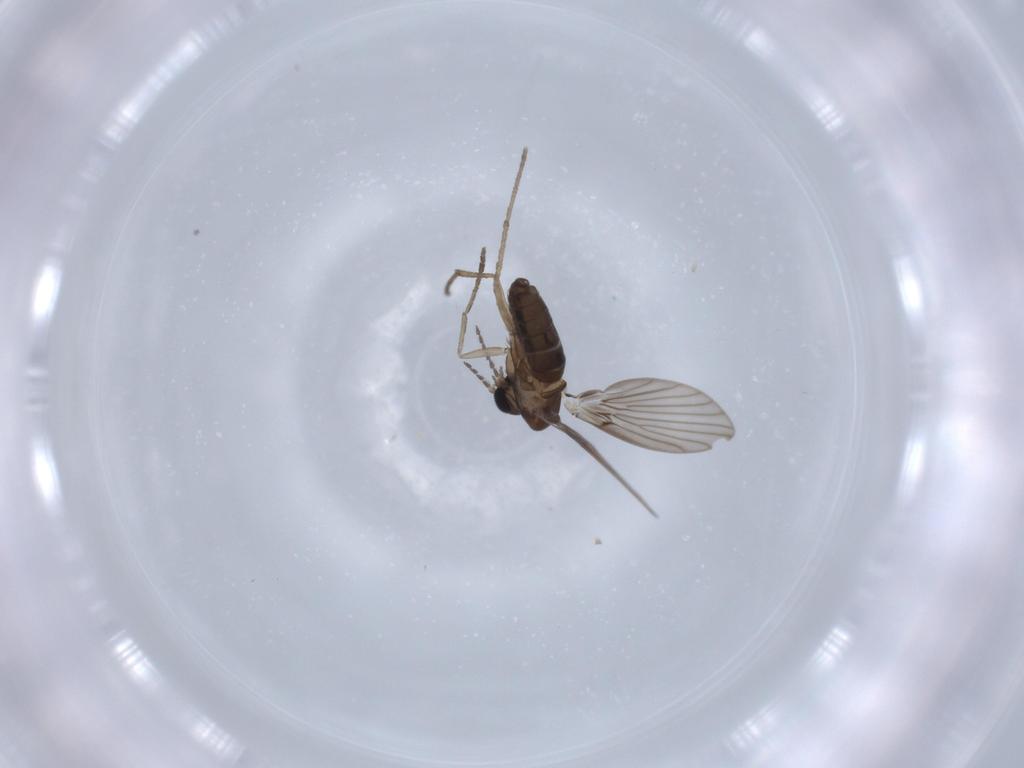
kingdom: Animalia
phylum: Arthropoda
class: Insecta
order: Diptera
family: Psychodidae
